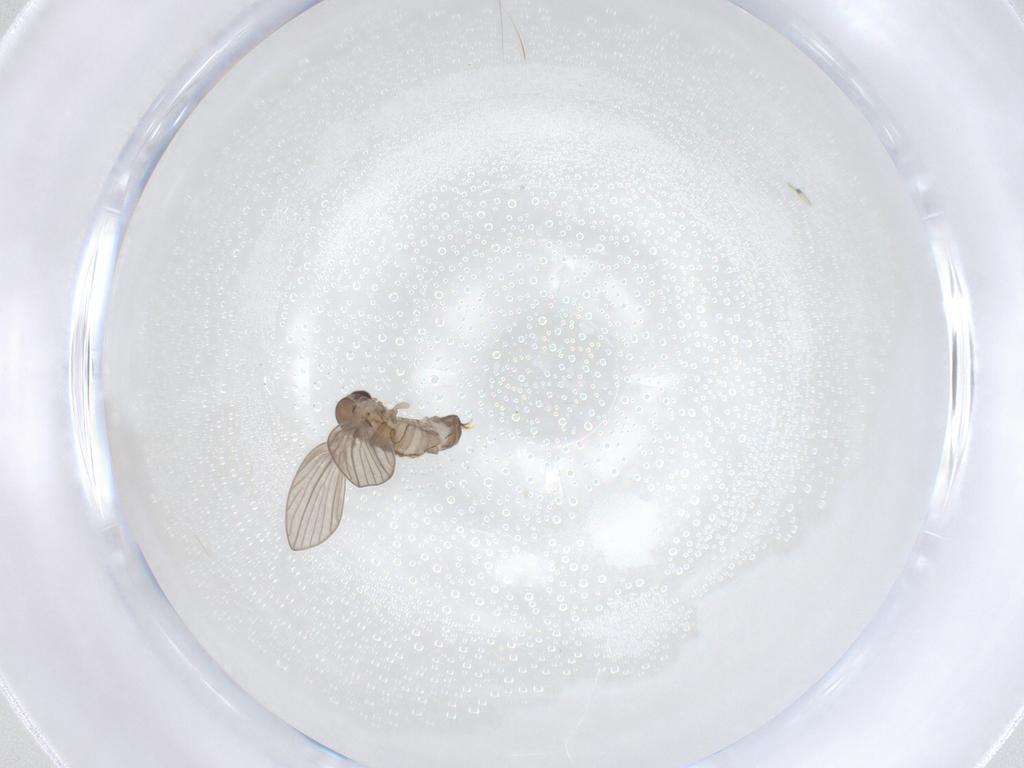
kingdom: Animalia
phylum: Arthropoda
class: Insecta
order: Diptera
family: Psychodidae
